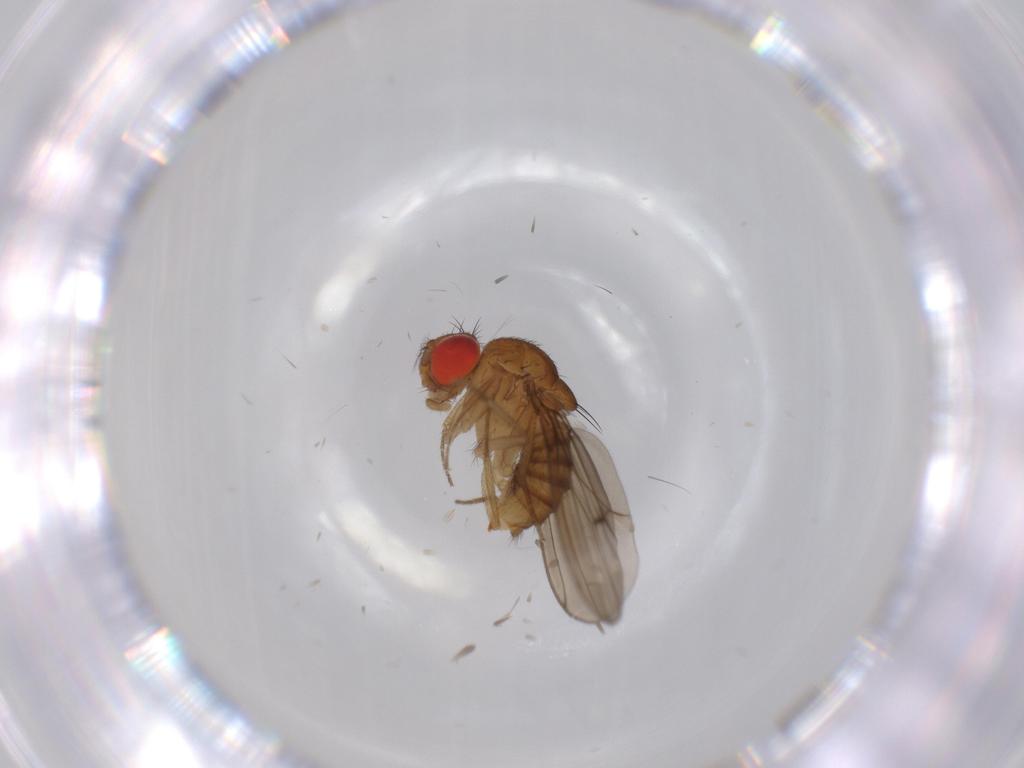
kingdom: Animalia
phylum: Arthropoda
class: Insecta
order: Diptera
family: Drosophilidae
